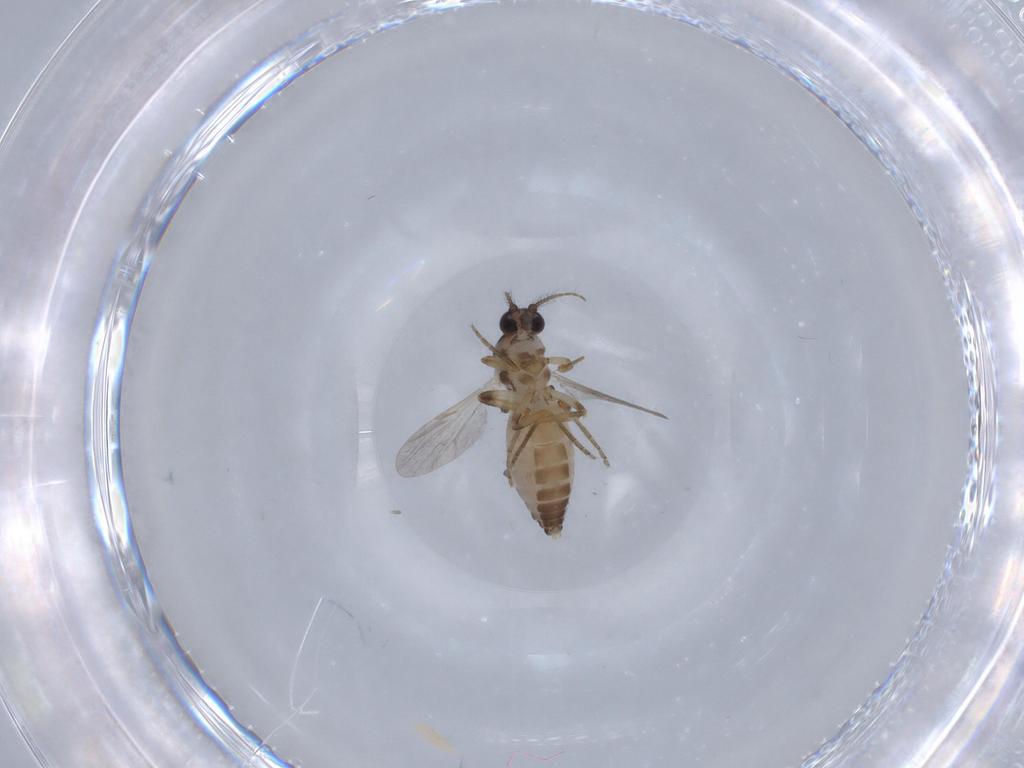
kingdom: Animalia
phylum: Arthropoda
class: Insecta
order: Diptera
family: Ceratopogonidae
